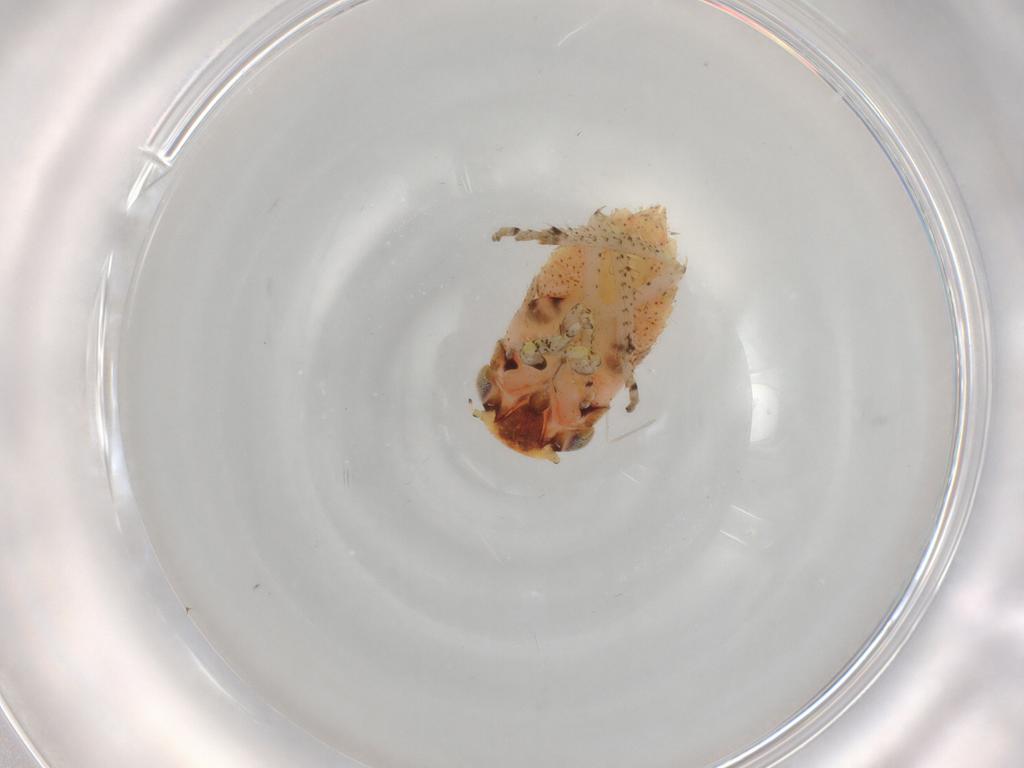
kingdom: Animalia
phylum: Arthropoda
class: Insecta
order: Hemiptera
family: Cicadellidae
